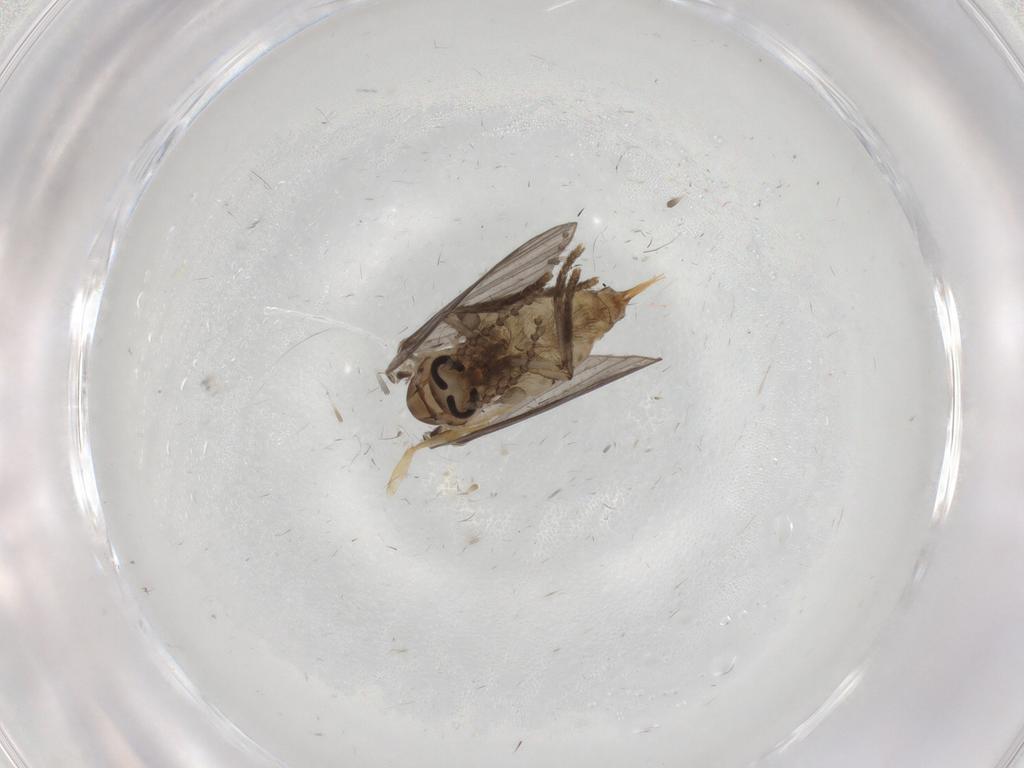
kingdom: Animalia
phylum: Arthropoda
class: Insecta
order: Diptera
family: Psychodidae
